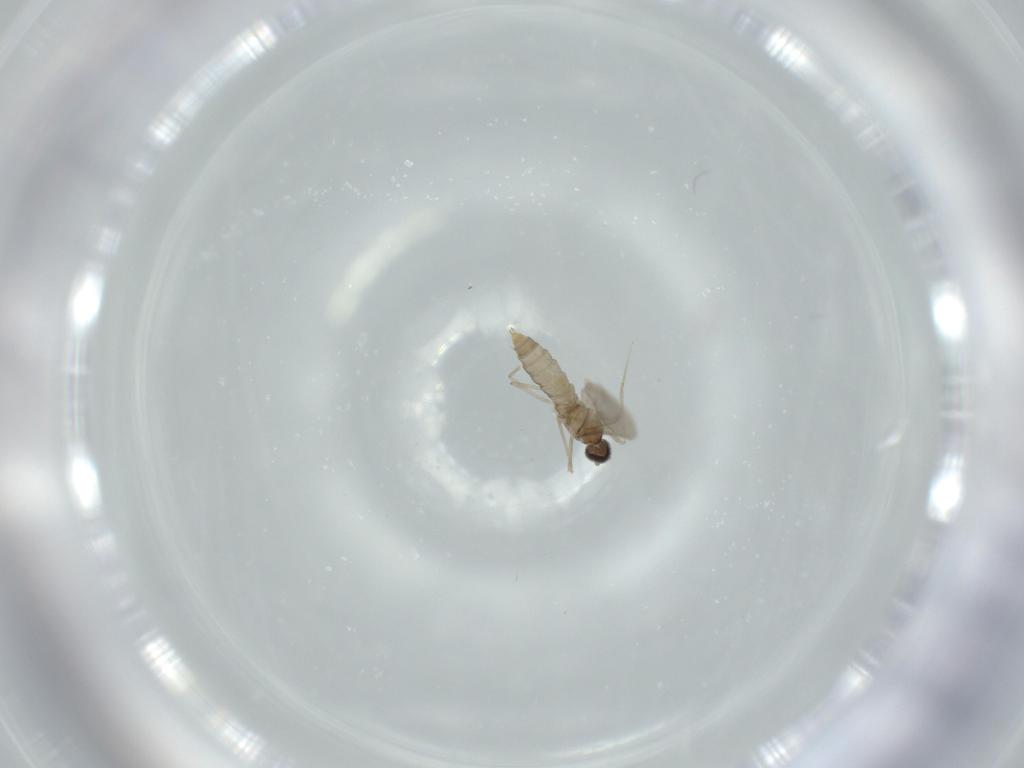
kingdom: Animalia
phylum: Arthropoda
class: Insecta
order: Diptera
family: Cecidomyiidae
